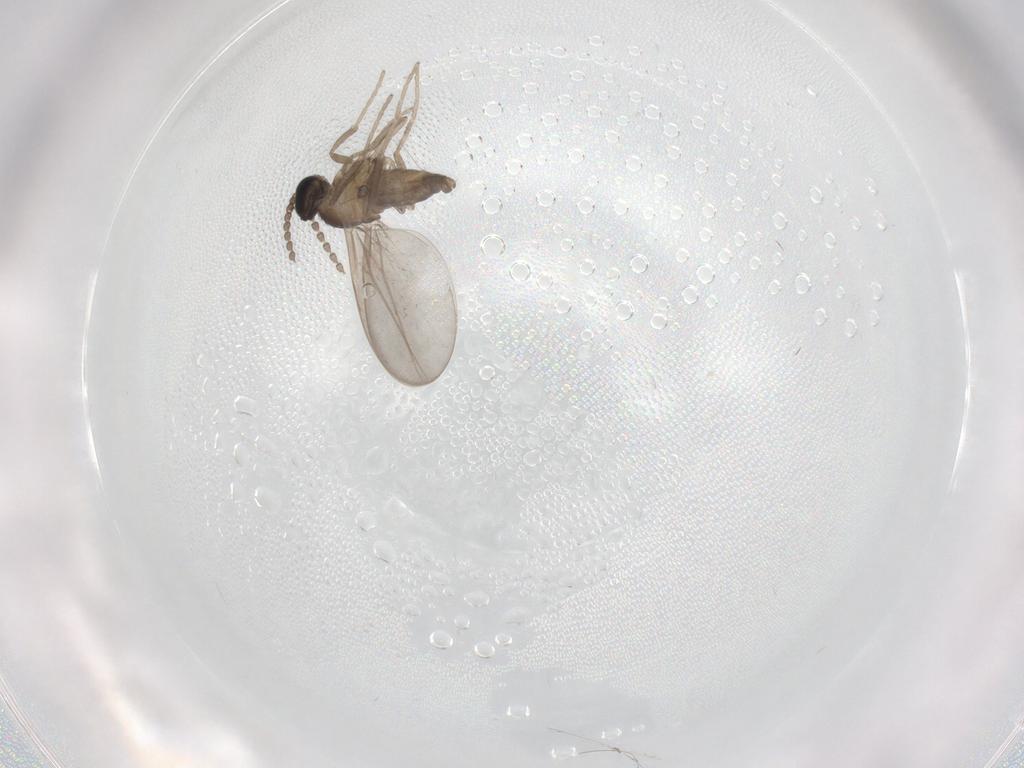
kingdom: Animalia
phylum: Arthropoda
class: Insecta
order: Diptera
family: Cecidomyiidae
